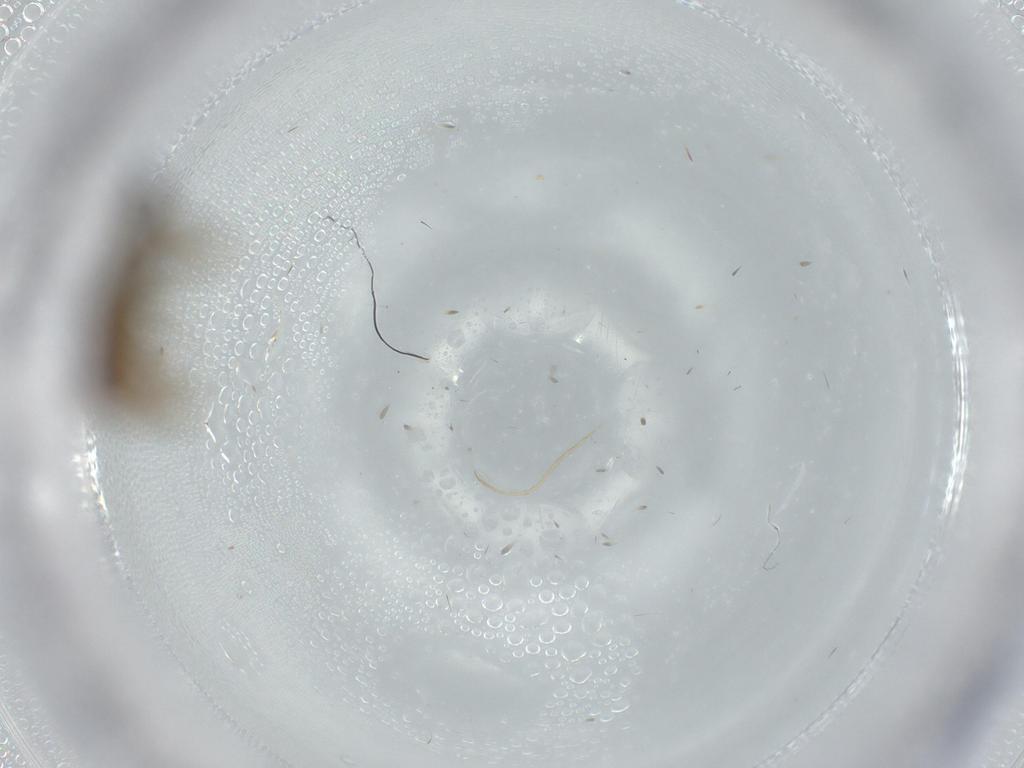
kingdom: Animalia
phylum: Arthropoda
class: Arachnida
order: Araneae
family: Linyphiidae
